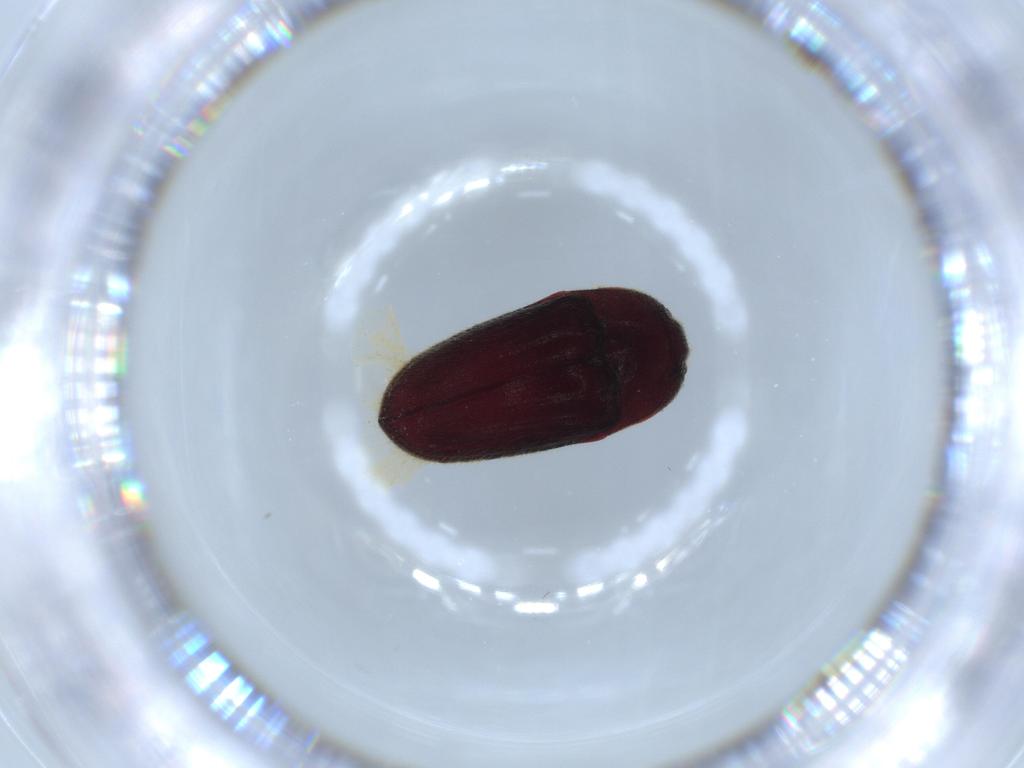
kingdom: Animalia
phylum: Arthropoda
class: Insecta
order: Coleoptera
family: Throscidae
